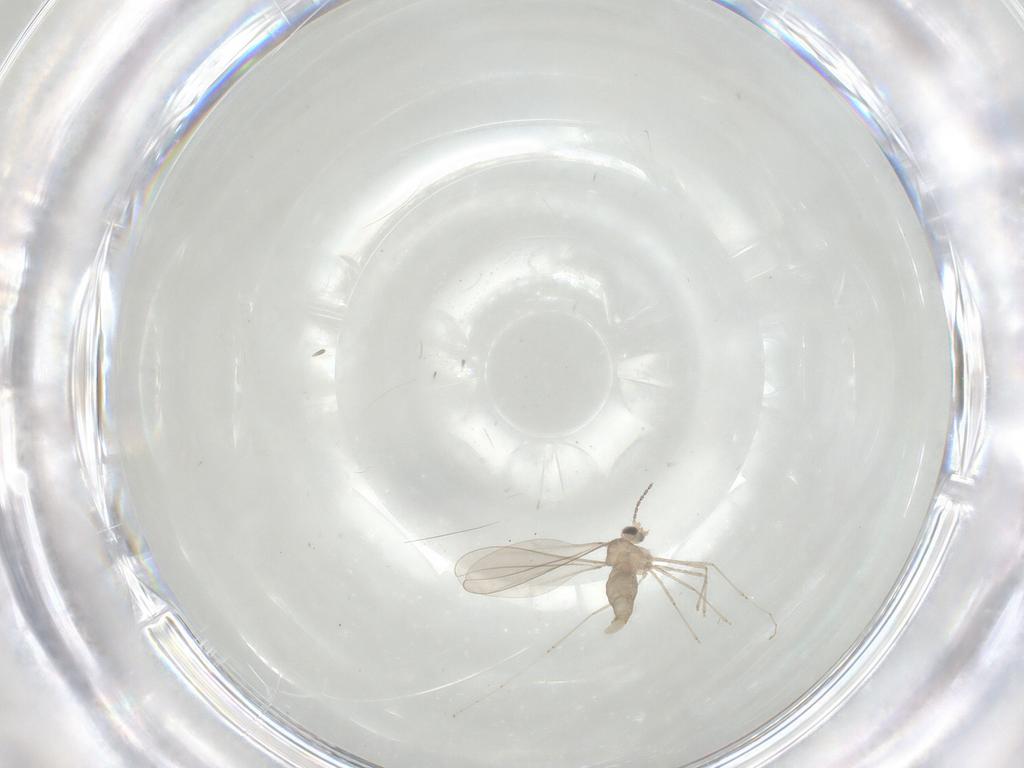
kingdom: Animalia
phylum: Arthropoda
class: Insecta
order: Diptera
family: Cecidomyiidae
